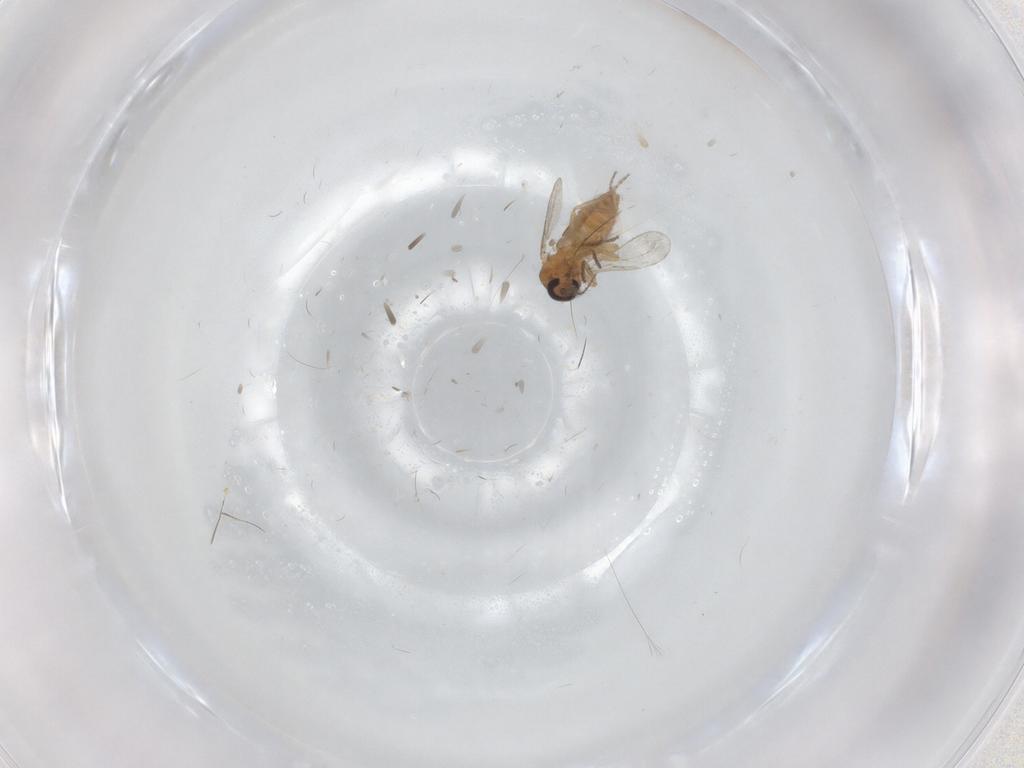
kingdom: Animalia
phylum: Arthropoda
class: Insecta
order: Diptera
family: Ceratopogonidae
